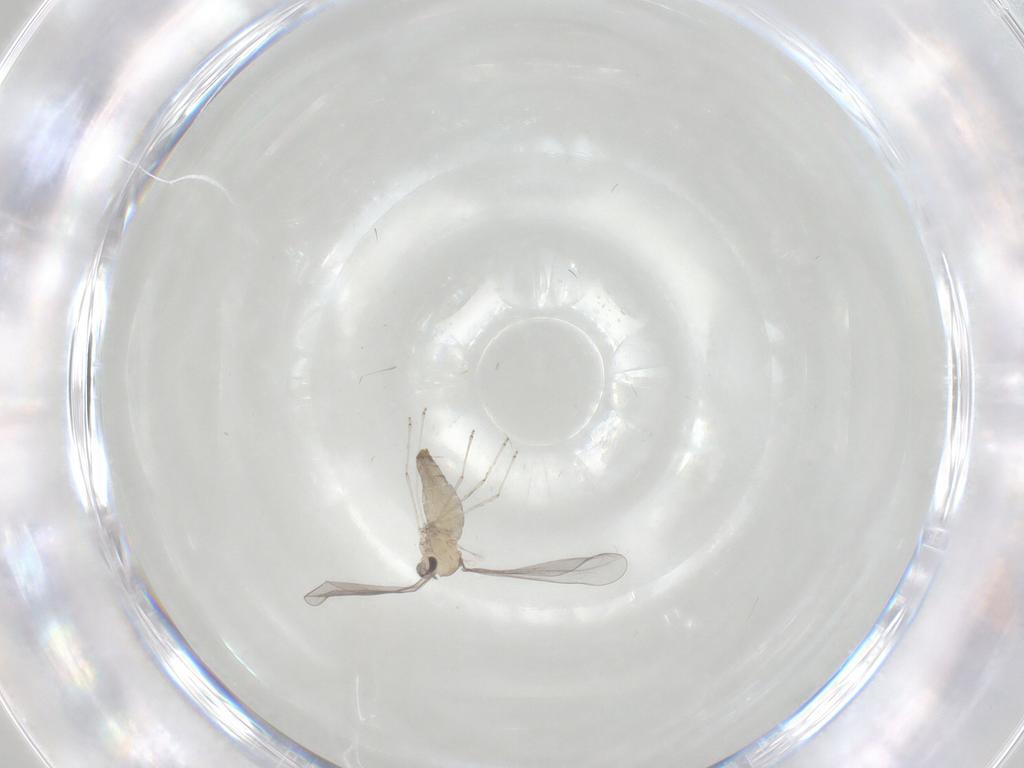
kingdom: Animalia
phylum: Arthropoda
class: Insecta
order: Diptera
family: Cecidomyiidae
